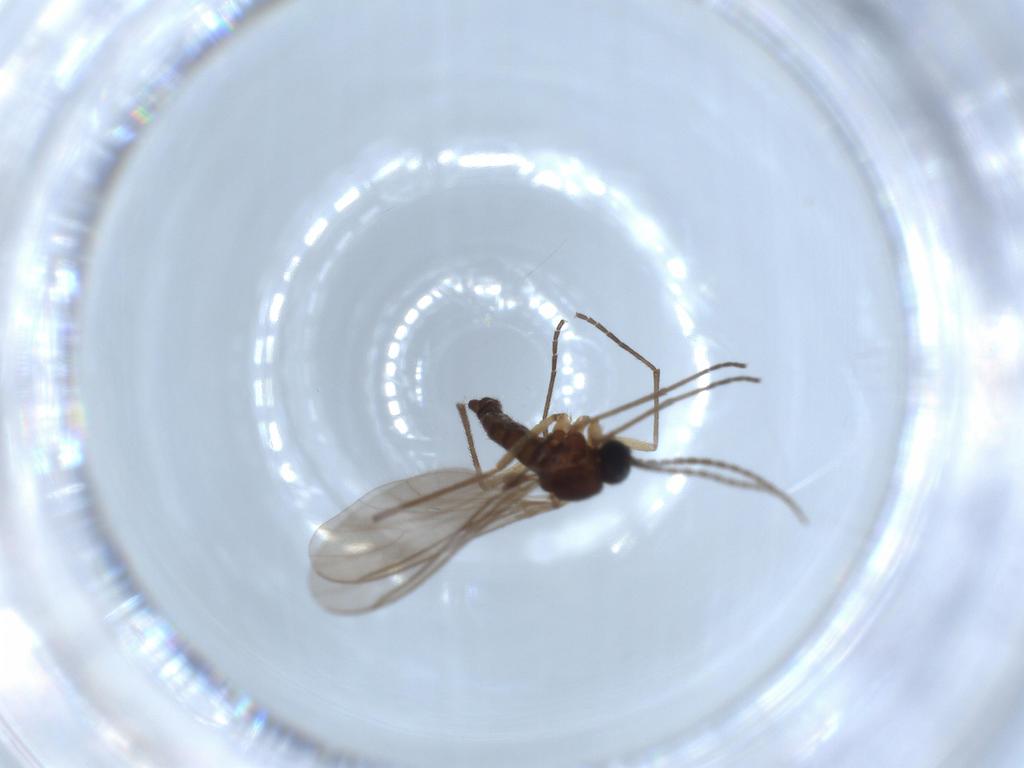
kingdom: Animalia
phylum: Arthropoda
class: Insecta
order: Diptera
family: Sciaridae
